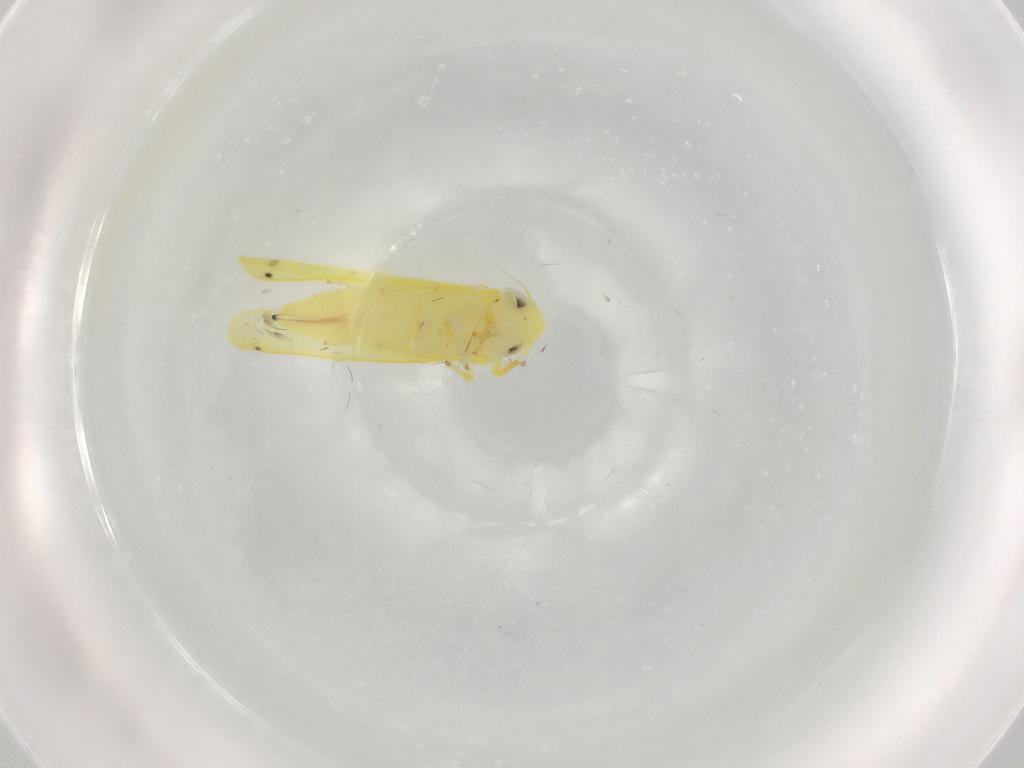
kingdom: Animalia
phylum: Arthropoda
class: Insecta
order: Hemiptera
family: Cicadellidae
